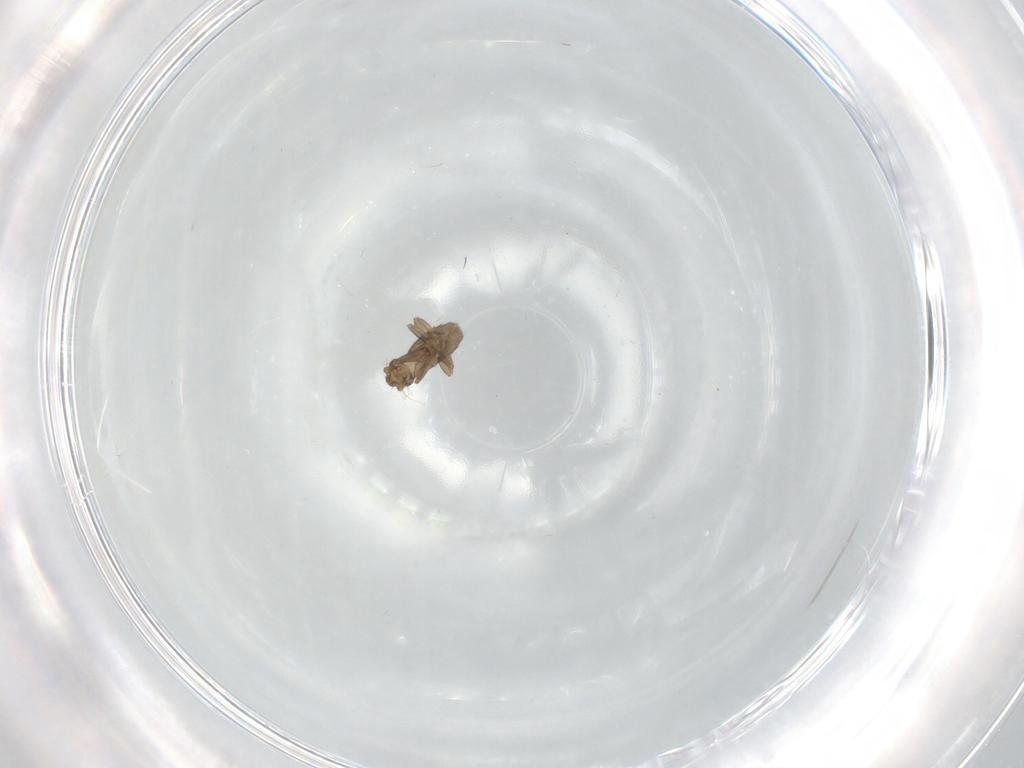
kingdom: Animalia
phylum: Arthropoda
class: Insecta
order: Diptera
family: Phoridae
